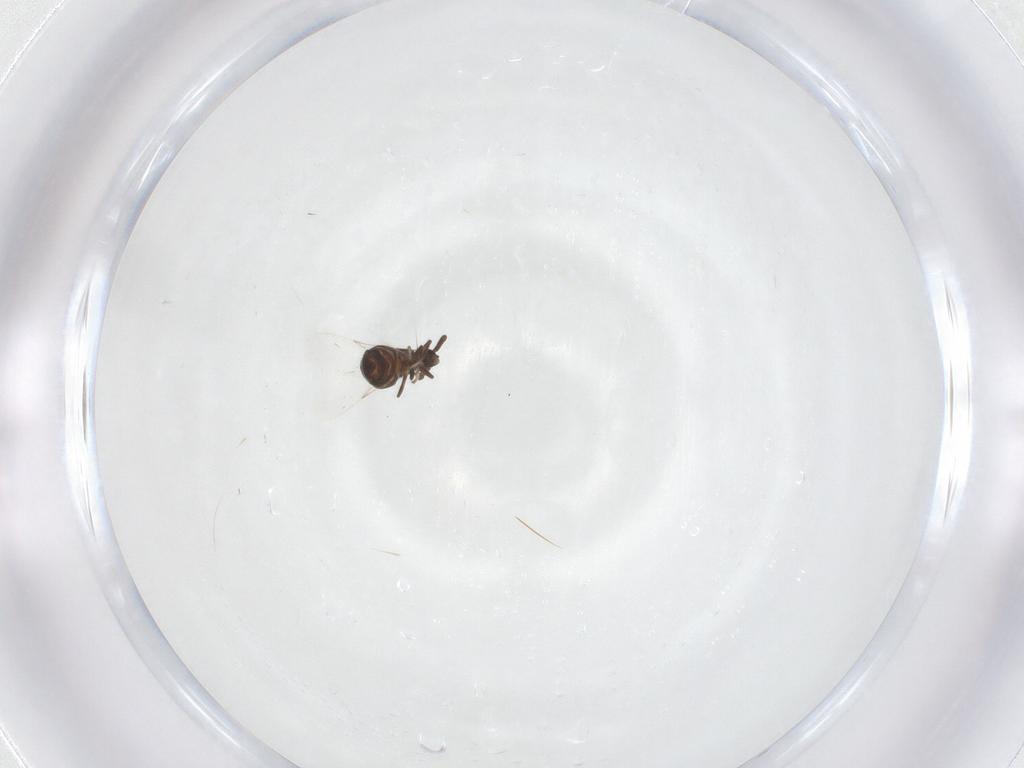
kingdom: Animalia
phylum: Arthropoda
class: Insecta
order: Diptera
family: Scatopsidae
